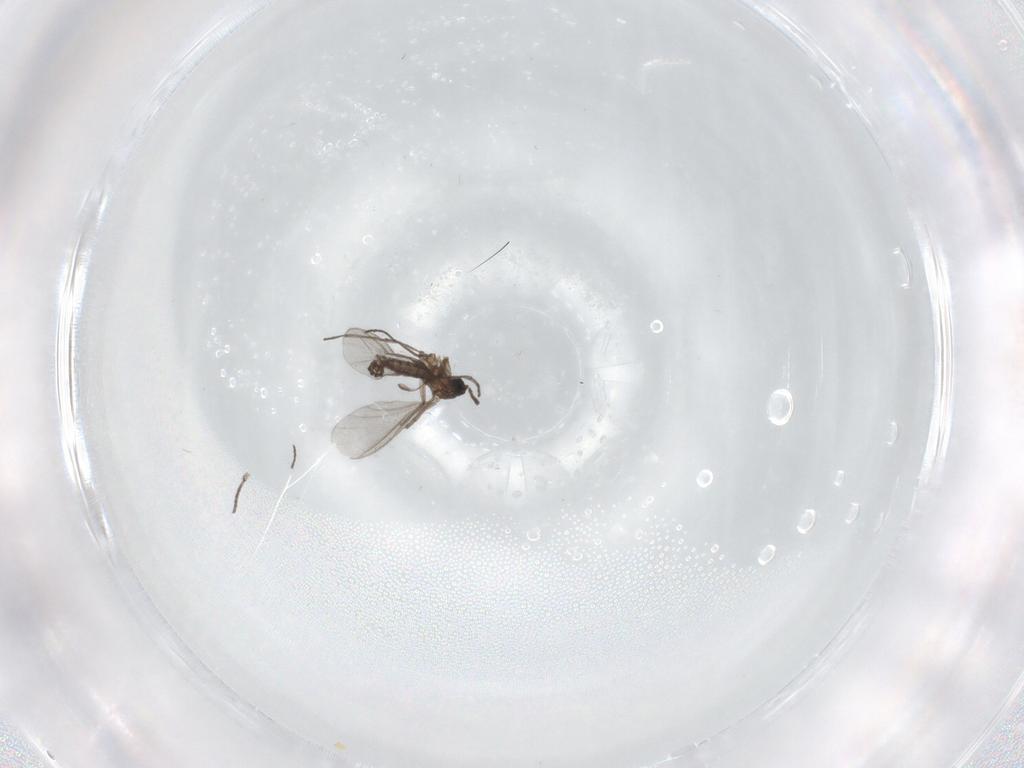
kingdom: Animalia
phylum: Arthropoda
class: Insecta
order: Diptera
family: Sciaridae
